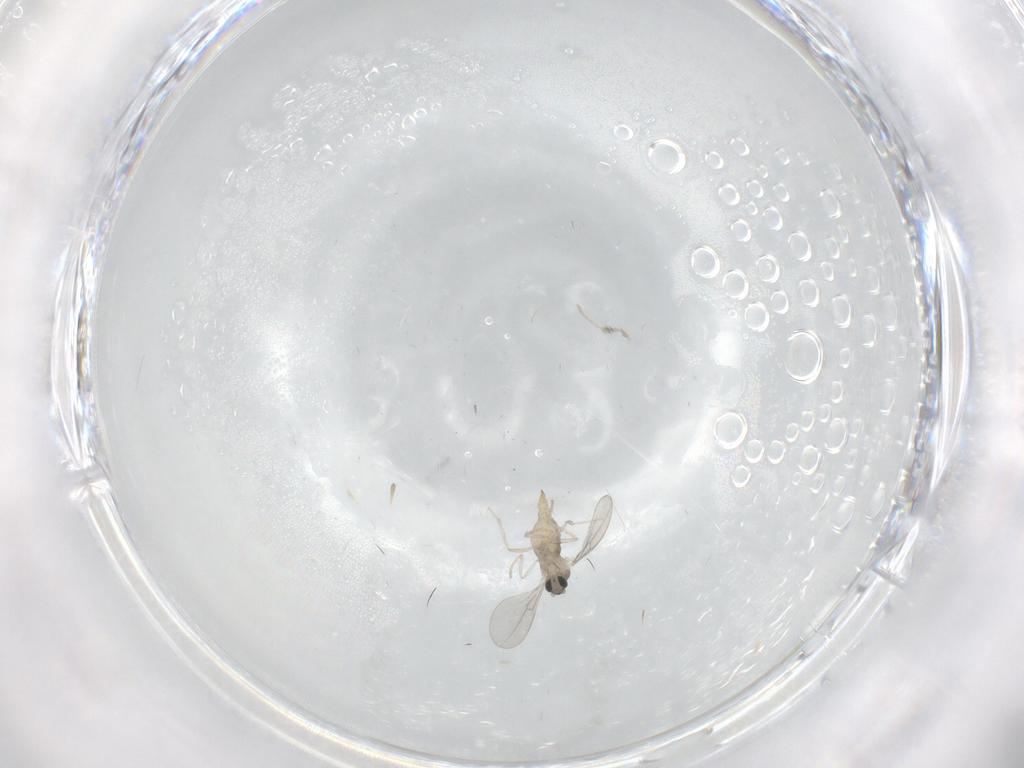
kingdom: Animalia
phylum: Arthropoda
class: Insecta
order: Diptera
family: Cecidomyiidae
